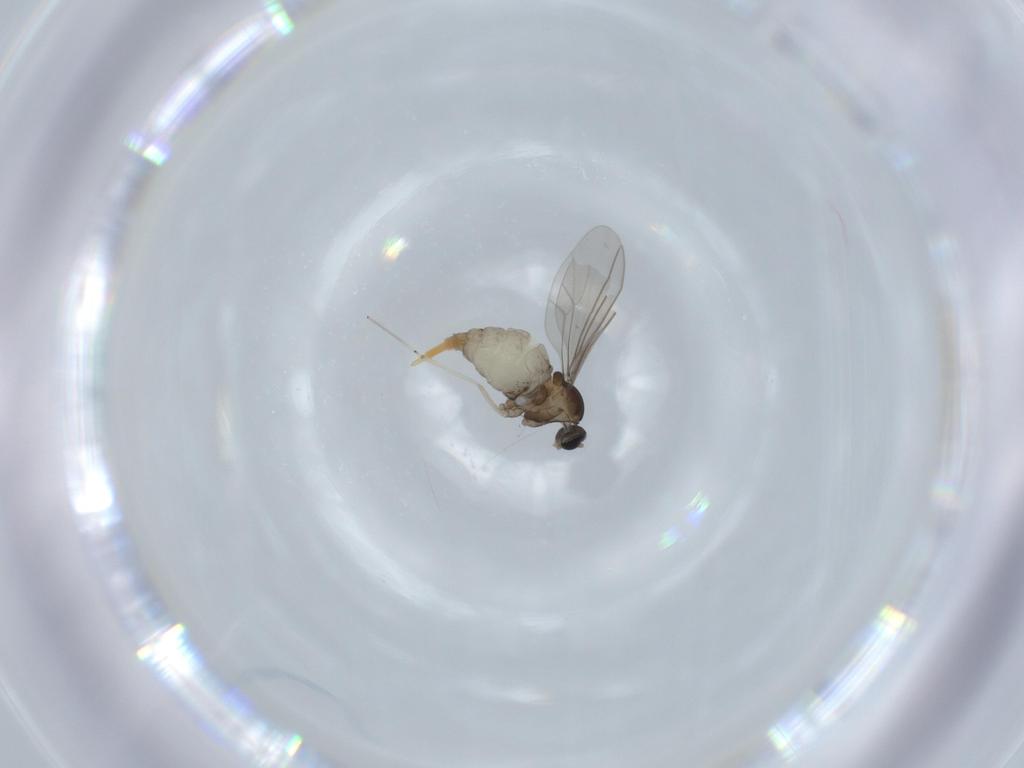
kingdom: Animalia
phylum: Arthropoda
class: Insecta
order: Diptera
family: Cecidomyiidae
